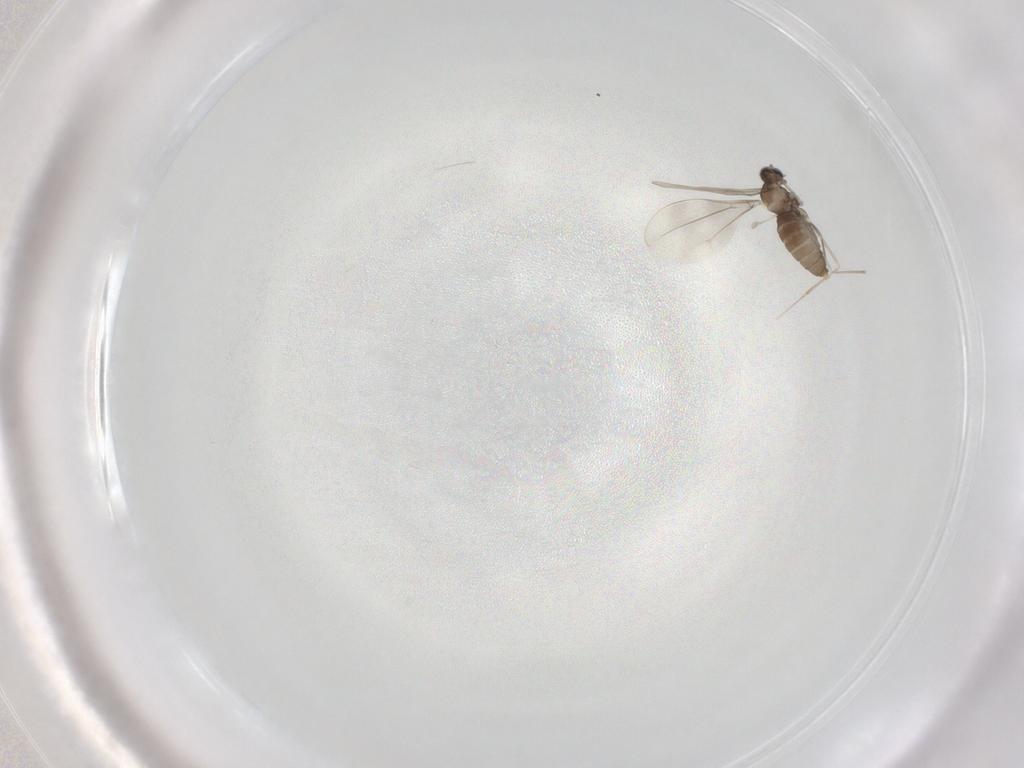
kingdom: Animalia
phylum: Arthropoda
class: Insecta
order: Diptera
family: Cecidomyiidae
